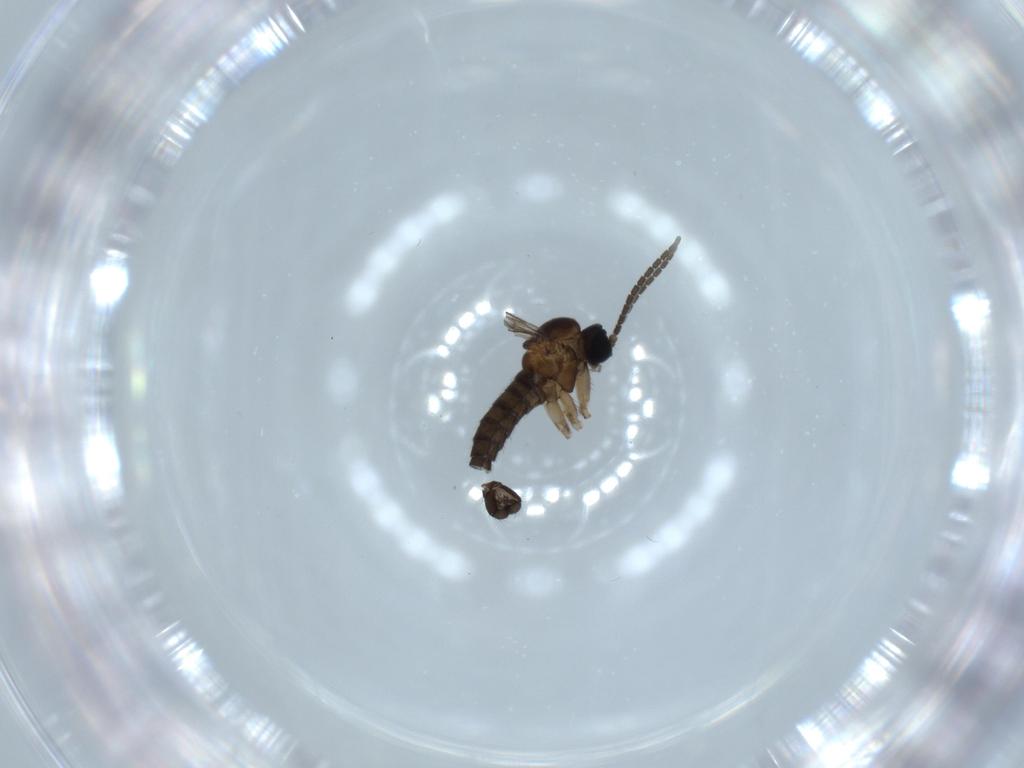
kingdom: Animalia
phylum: Arthropoda
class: Insecta
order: Diptera
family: Sciaridae
